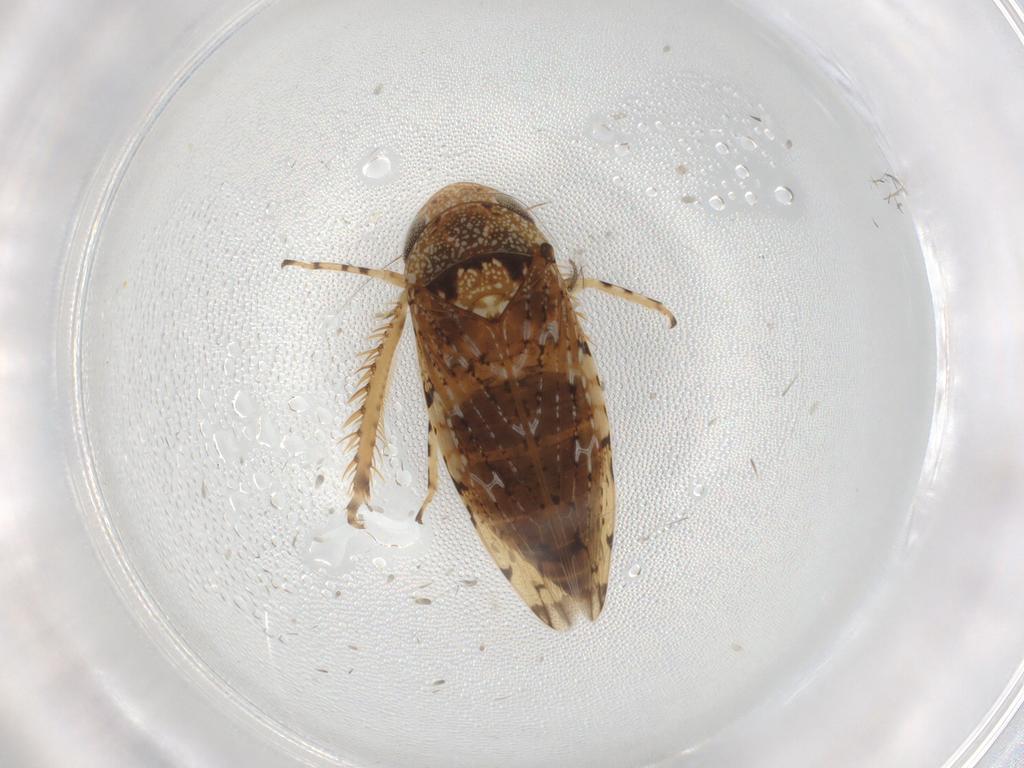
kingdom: Animalia
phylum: Arthropoda
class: Insecta
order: Hemiptera
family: Cicadellidae
